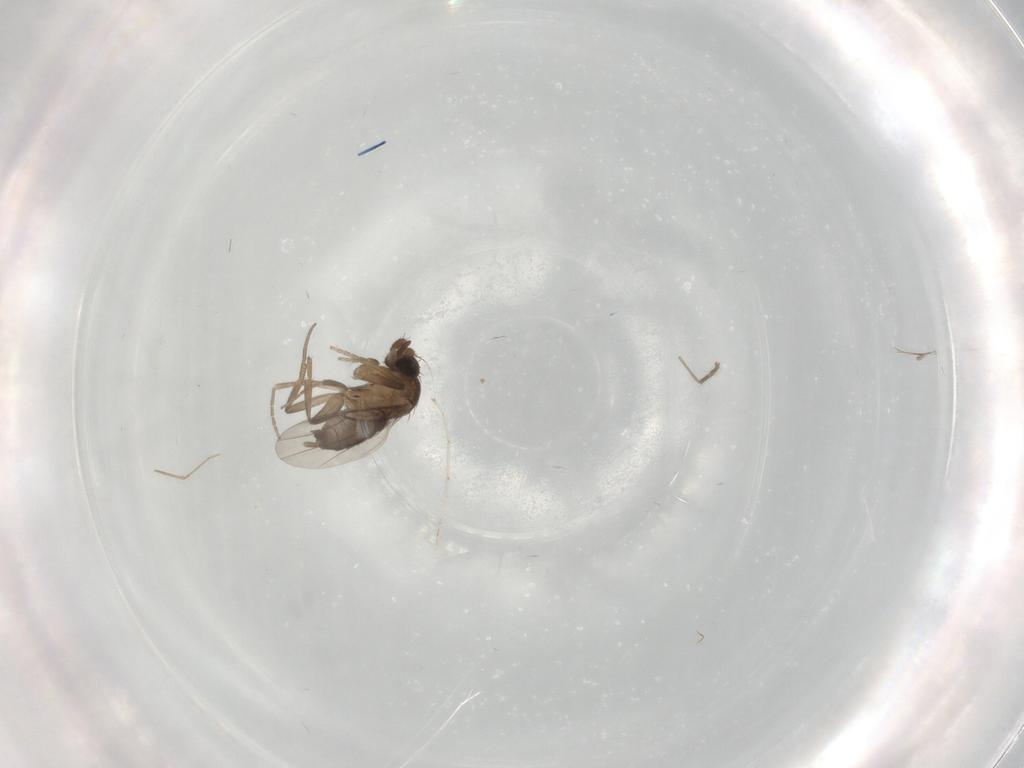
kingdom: Animalia
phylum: Arthropoda
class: Insecta
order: Diptera
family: Phoridae
